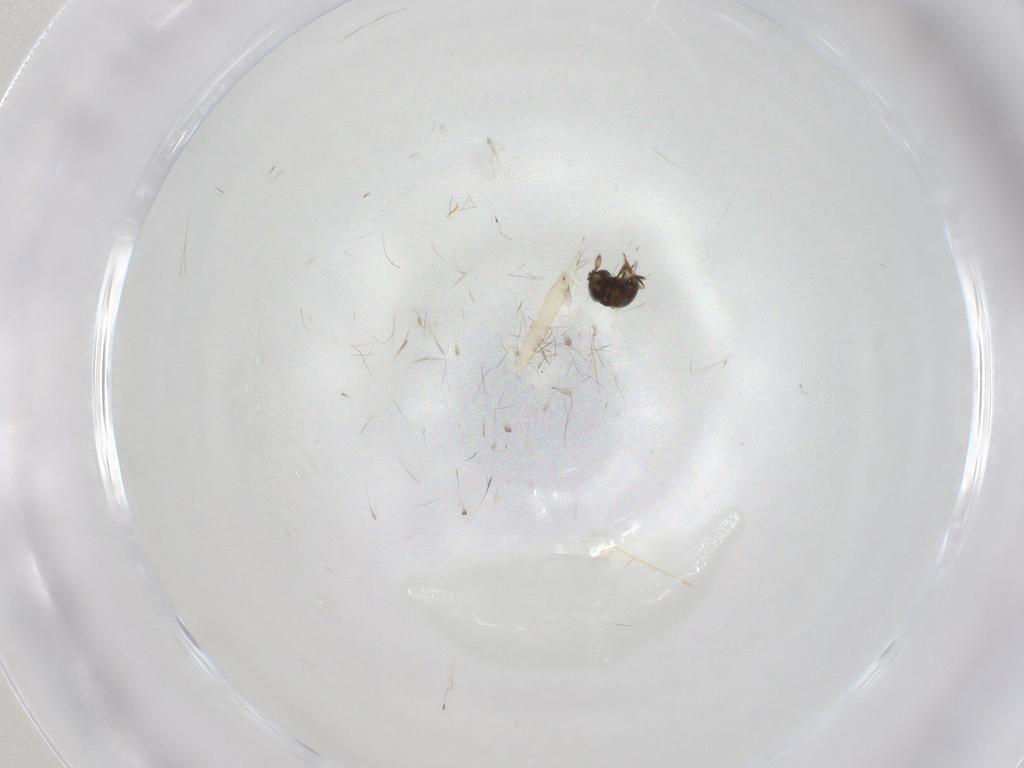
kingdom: Animalia
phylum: Arthropoda
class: Insecta
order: Hymenoptera
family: Scelionidae
